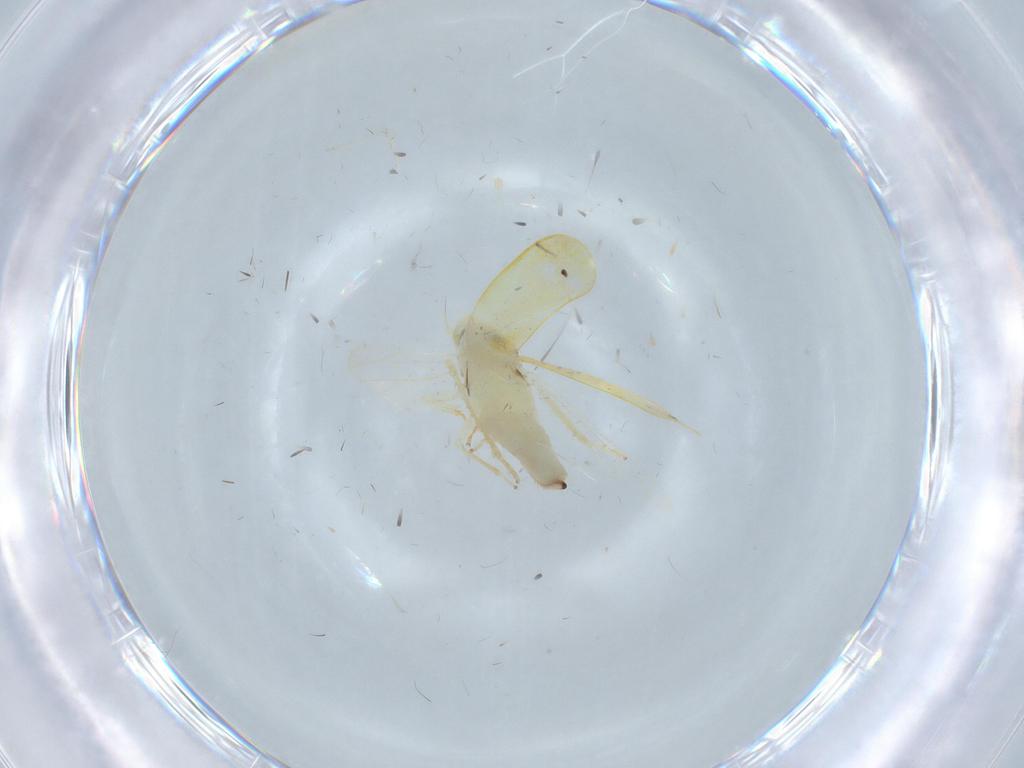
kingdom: Animalia
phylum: Arthropoda
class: Insecta
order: Hemiptera
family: Cicadellidae
